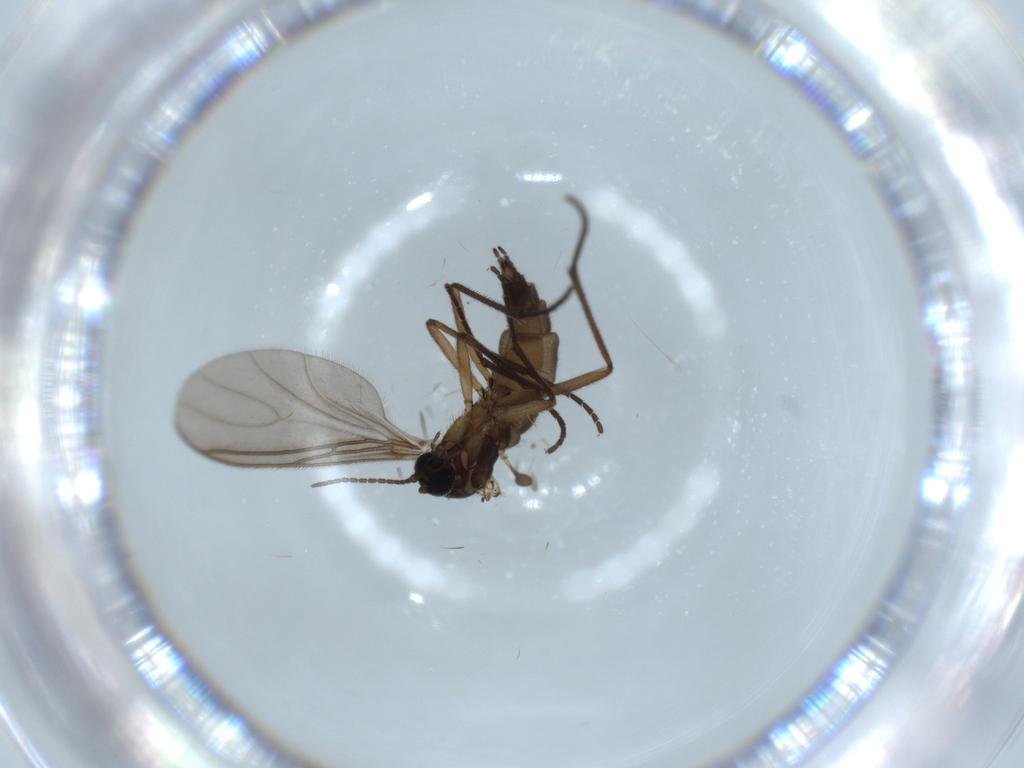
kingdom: Animalia
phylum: Arthropoda
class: Insecta
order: Diptera
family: Sciaridae
